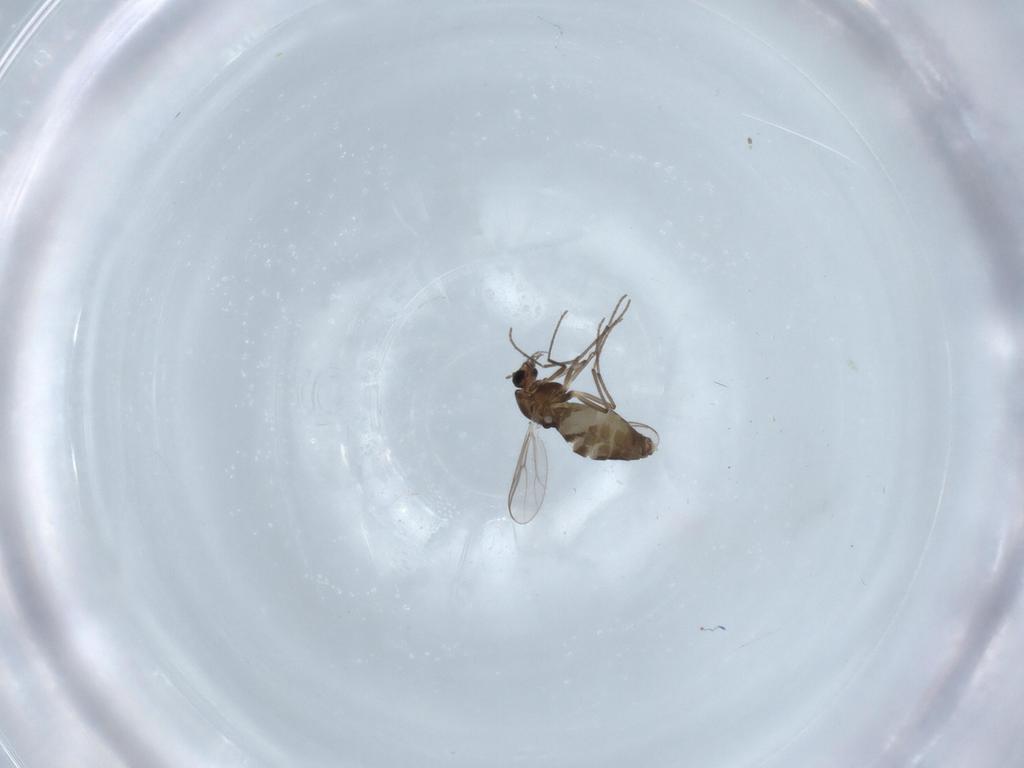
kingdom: Animalia
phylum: Arthropoda
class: Insecta
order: Diptera
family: Chironomidae
